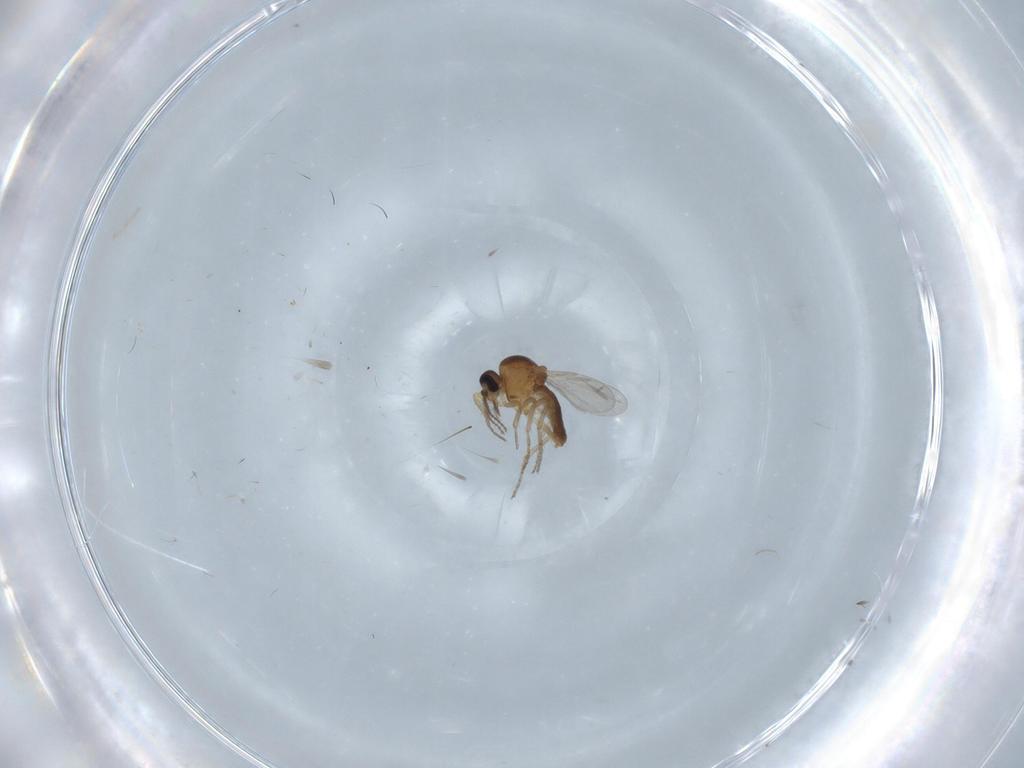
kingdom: Animalia
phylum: Arthropoda
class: Insecta
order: Diptera
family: Ceratopogonidae
